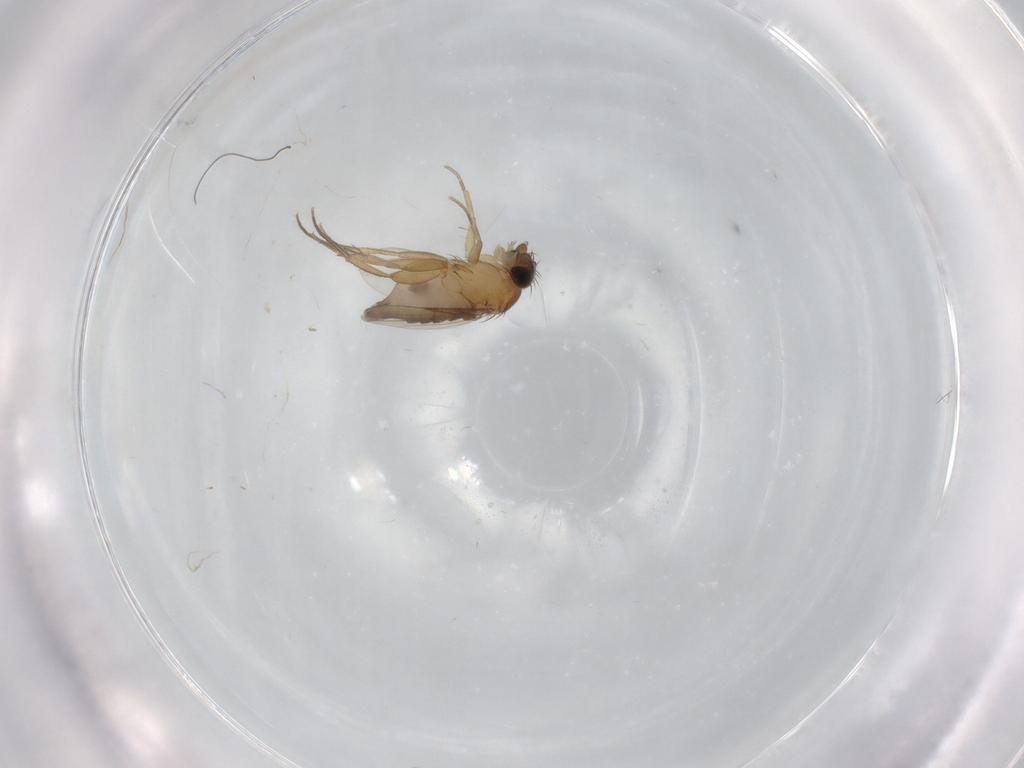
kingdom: Animalia
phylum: Arthropoda
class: Insecta
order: Diptera
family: Phoridae
